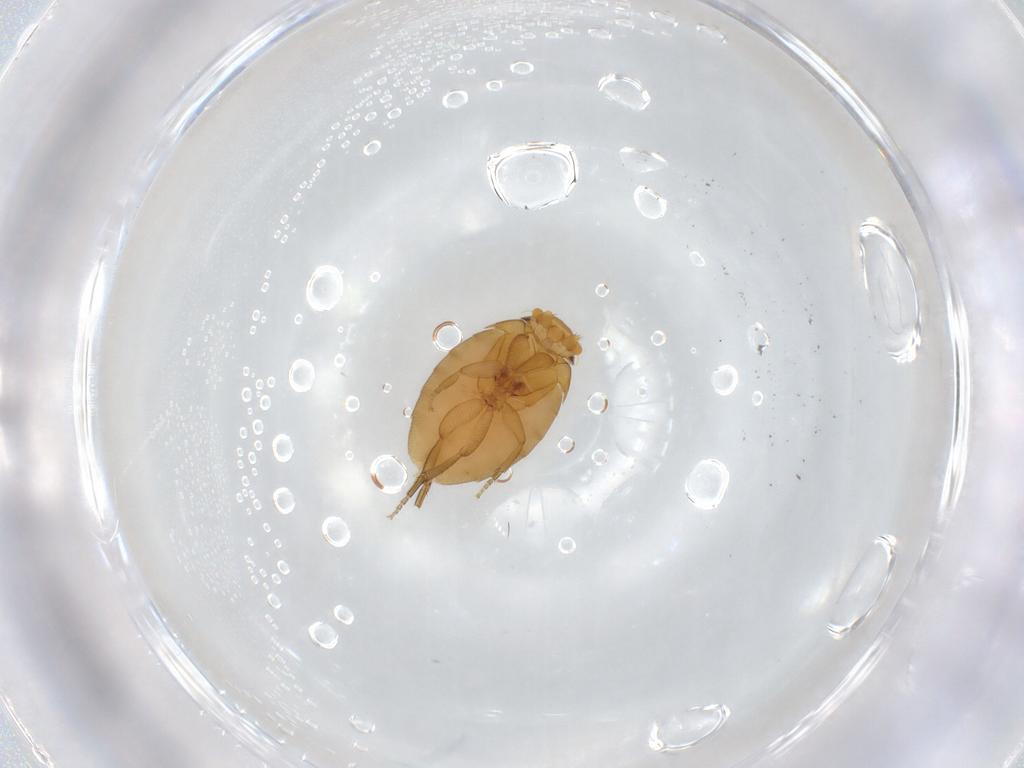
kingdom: Animalia
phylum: Arthropoda
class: Insecta
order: Diptera
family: Phoridae
